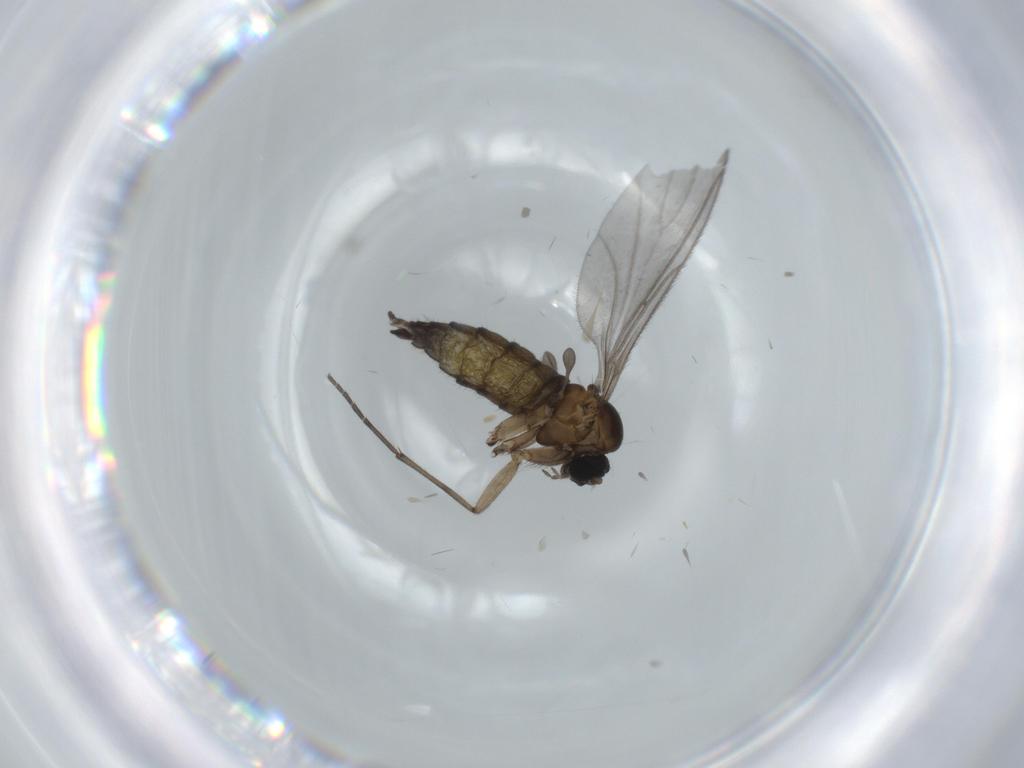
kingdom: Animalia
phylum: Arthropoda
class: Insecta
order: Diptera
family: Sciaridae
